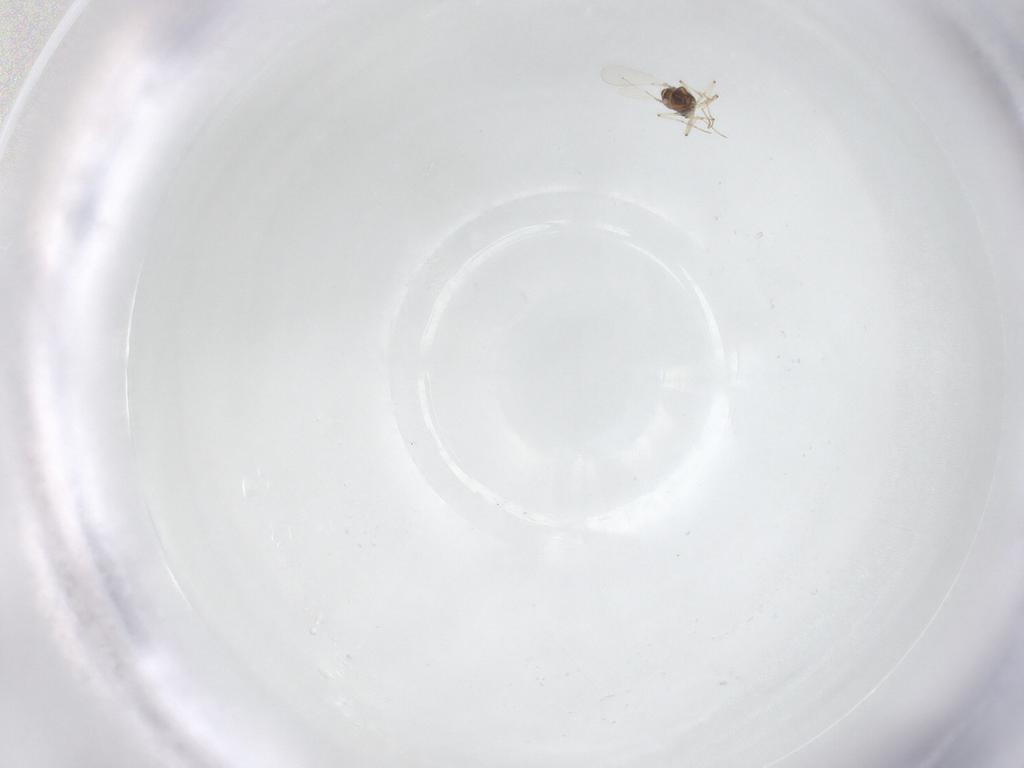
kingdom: Animalia
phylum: Arthropoda
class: Insecta
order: Diptera
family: Chironomidae
